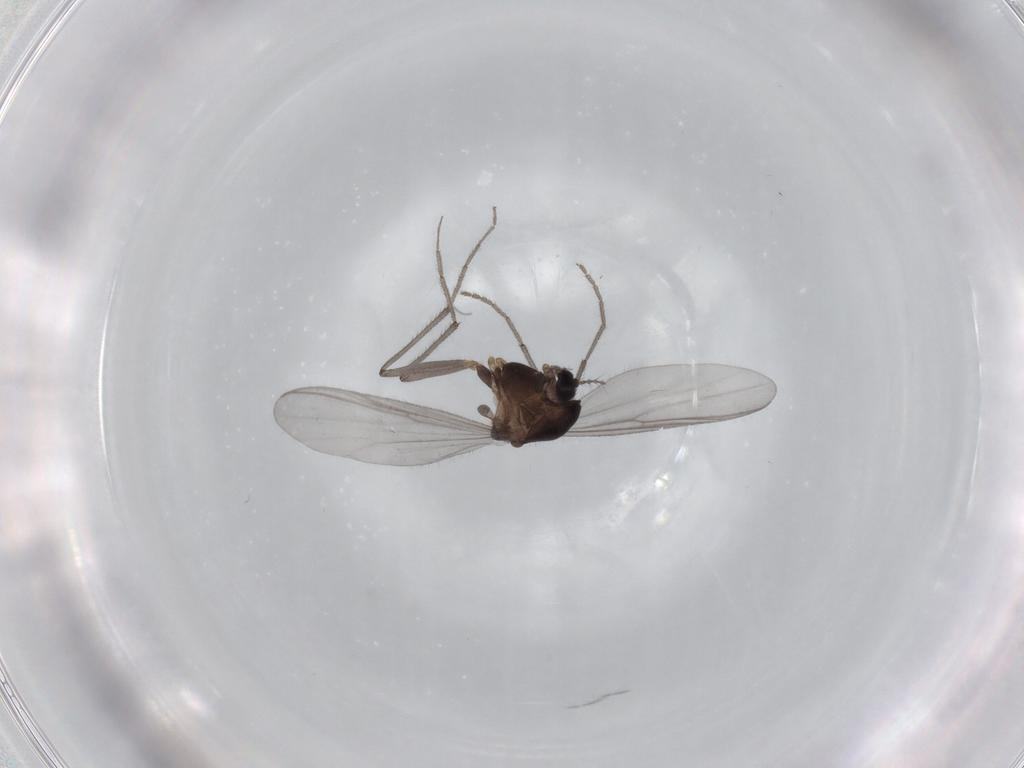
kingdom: Animalia
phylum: Arthropoda
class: Insecta
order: Diptera
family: Chironomidae
